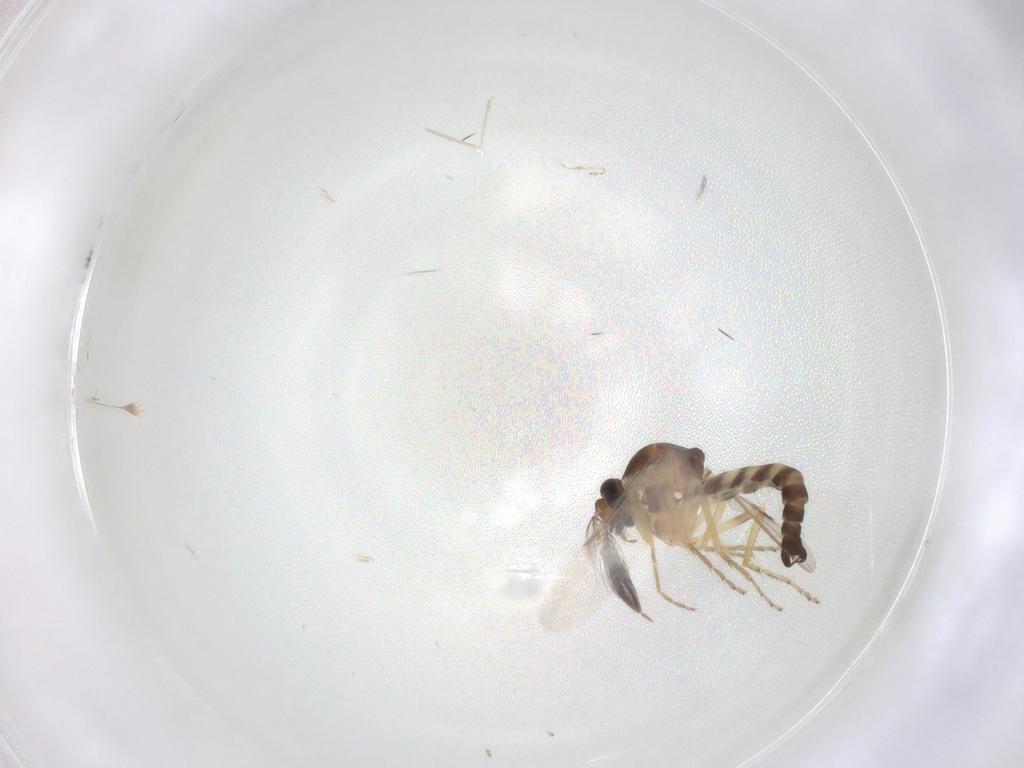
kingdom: Animalia
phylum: Arthropoda
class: Insecta
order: Diptera
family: Ceratopogonidae
